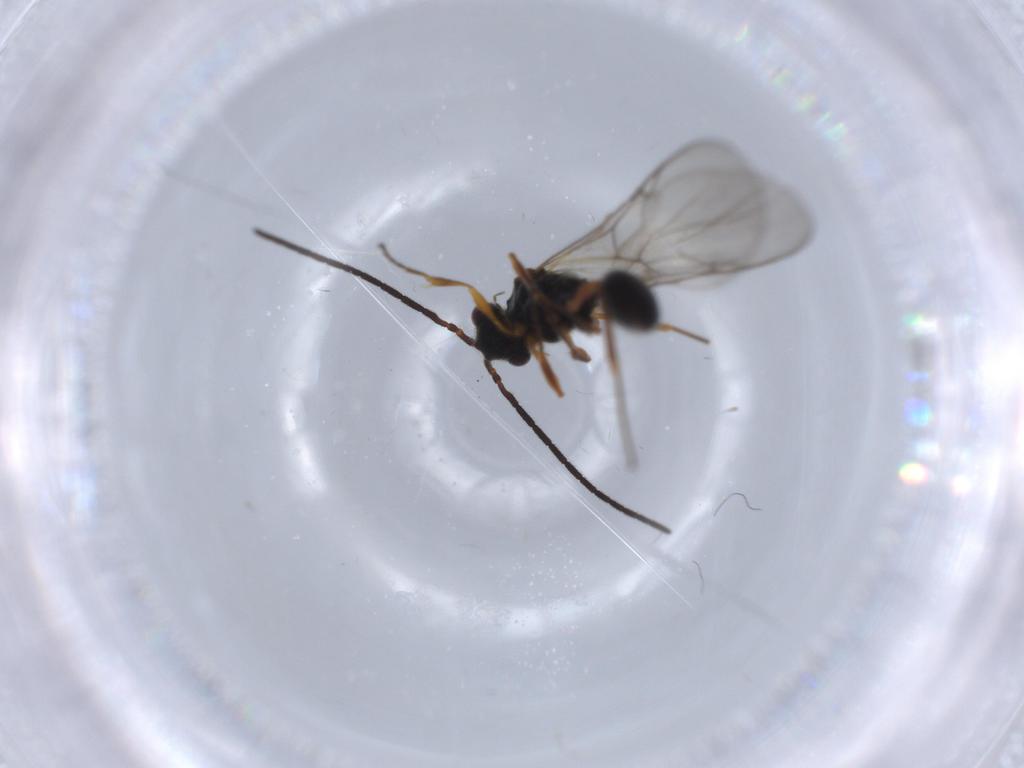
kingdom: Animalia
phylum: Arthropoda
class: Insecta
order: Hymenoptera
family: Diapriidae
